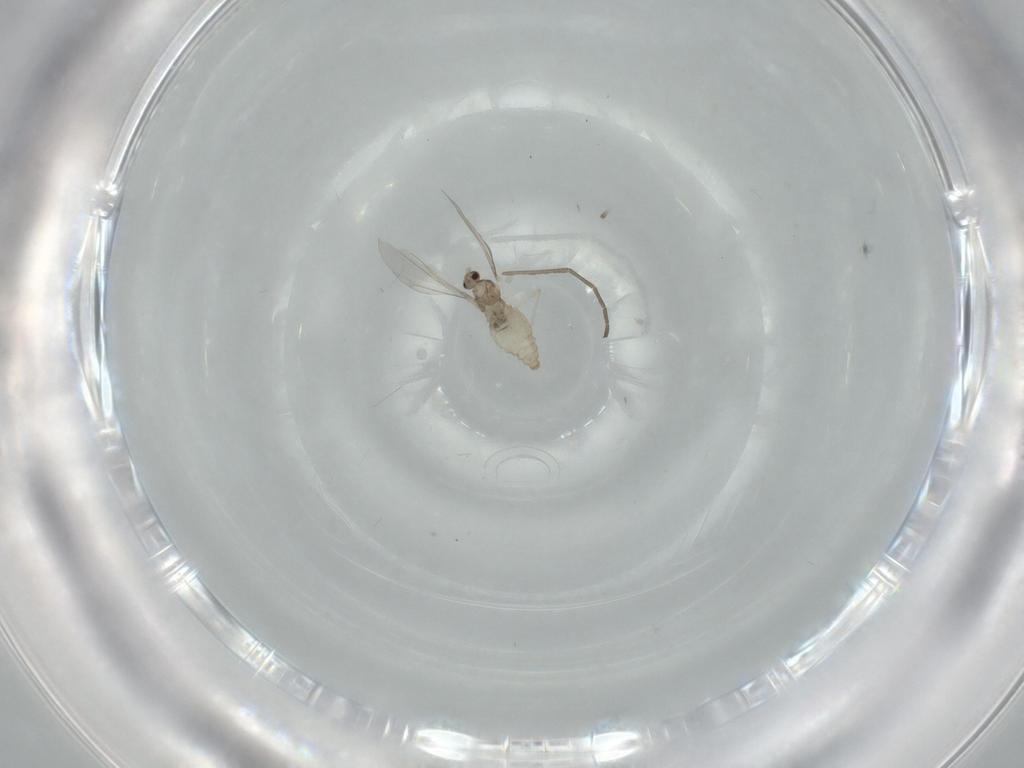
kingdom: Animalia
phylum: Arthropoda
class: Insecta
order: Diptera
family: Cecidomyiidae
